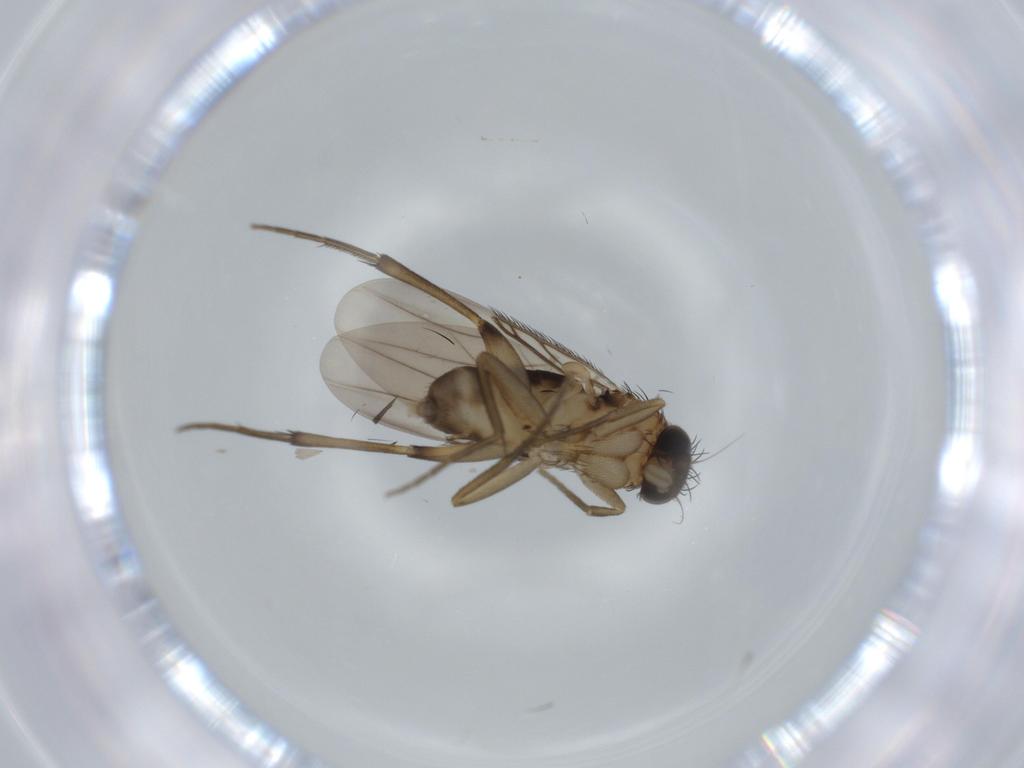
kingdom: Animalia
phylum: Arthropoda
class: Insecta
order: Diptera
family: Phoridae
